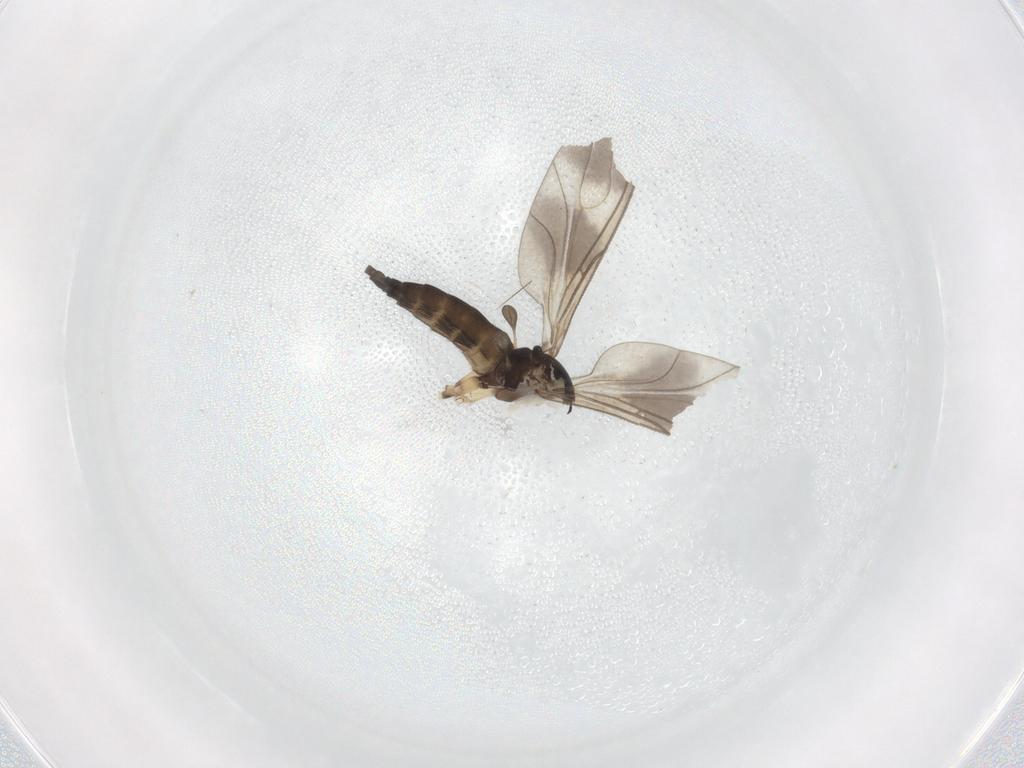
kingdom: Animalia
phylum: Arthropoda
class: Insecta
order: Diptera
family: Sciaridae
